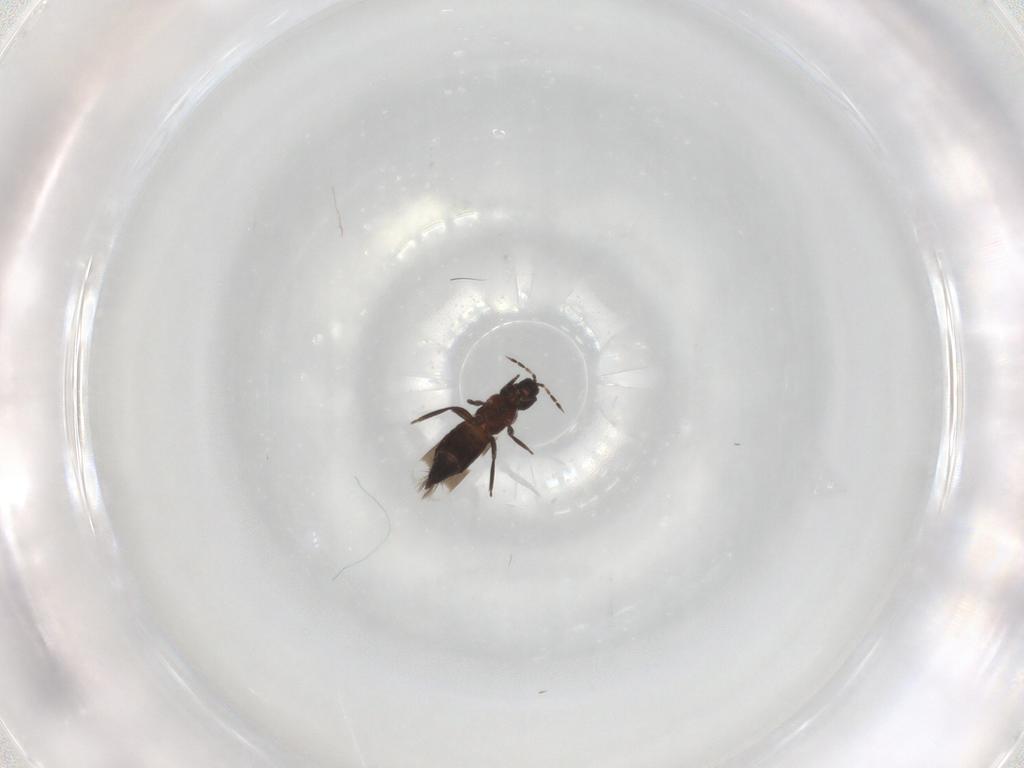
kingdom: Animalia
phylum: Arthropoda
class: Insecta
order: Thysanoptera
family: Aeolothripidae
